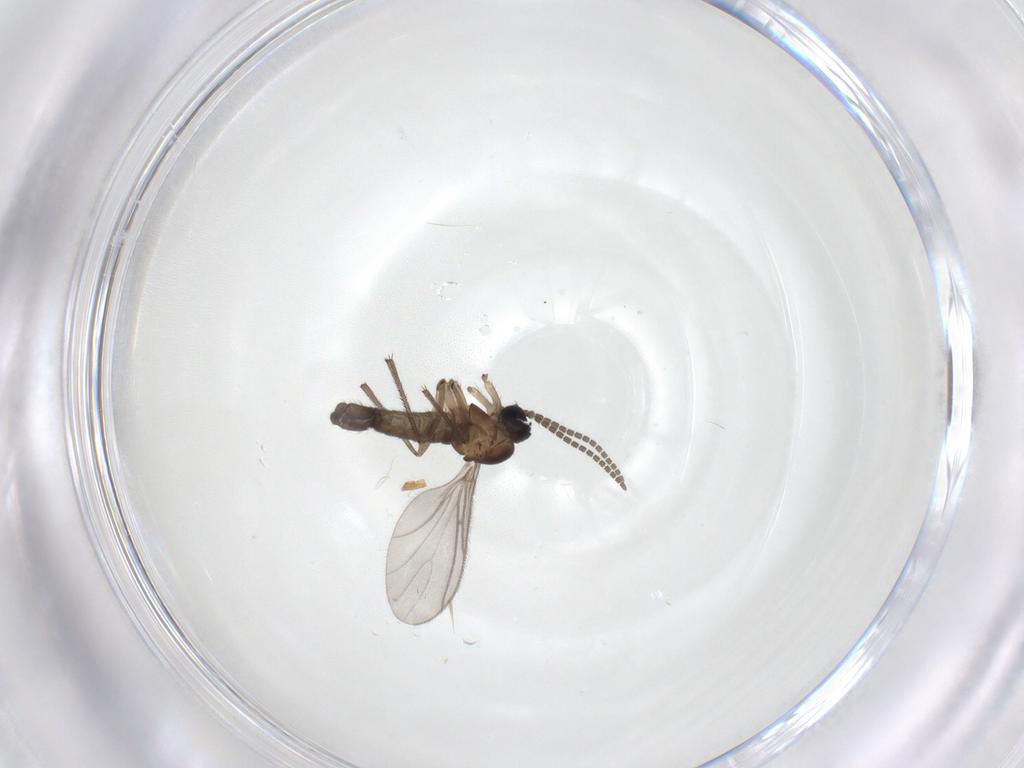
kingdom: Animalia
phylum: Arthropoda
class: Insecta
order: Diptera
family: Sciaridae
